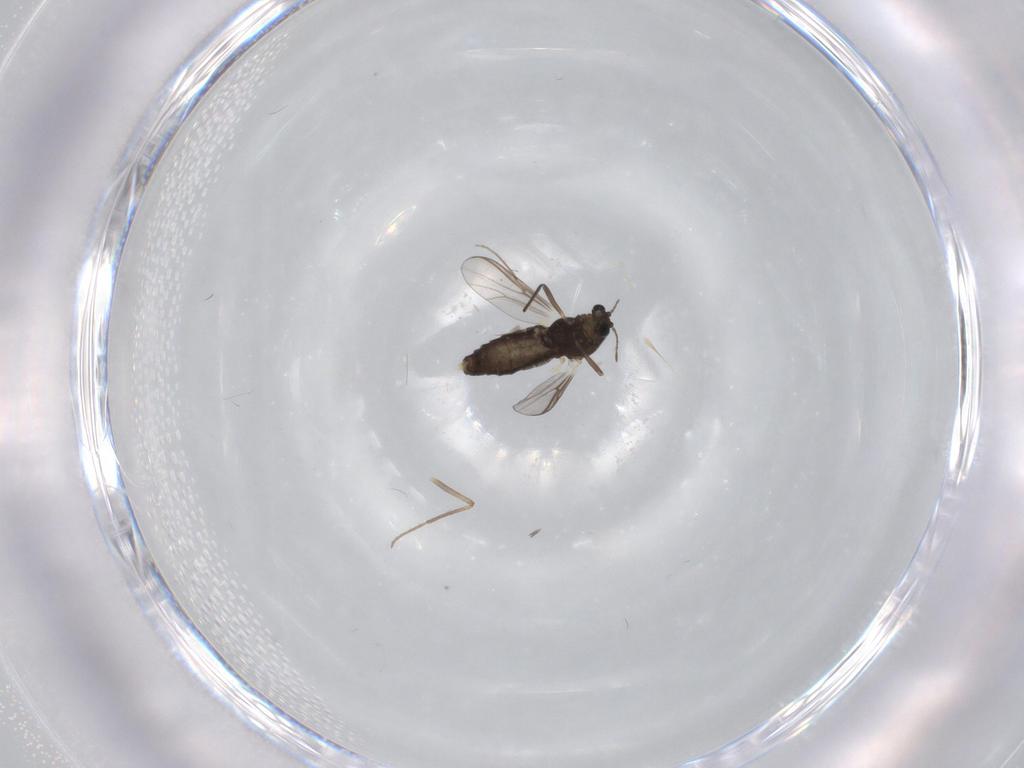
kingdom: Animalia
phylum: Arthropoda
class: Insecta
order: Diptera
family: Chironomidae
